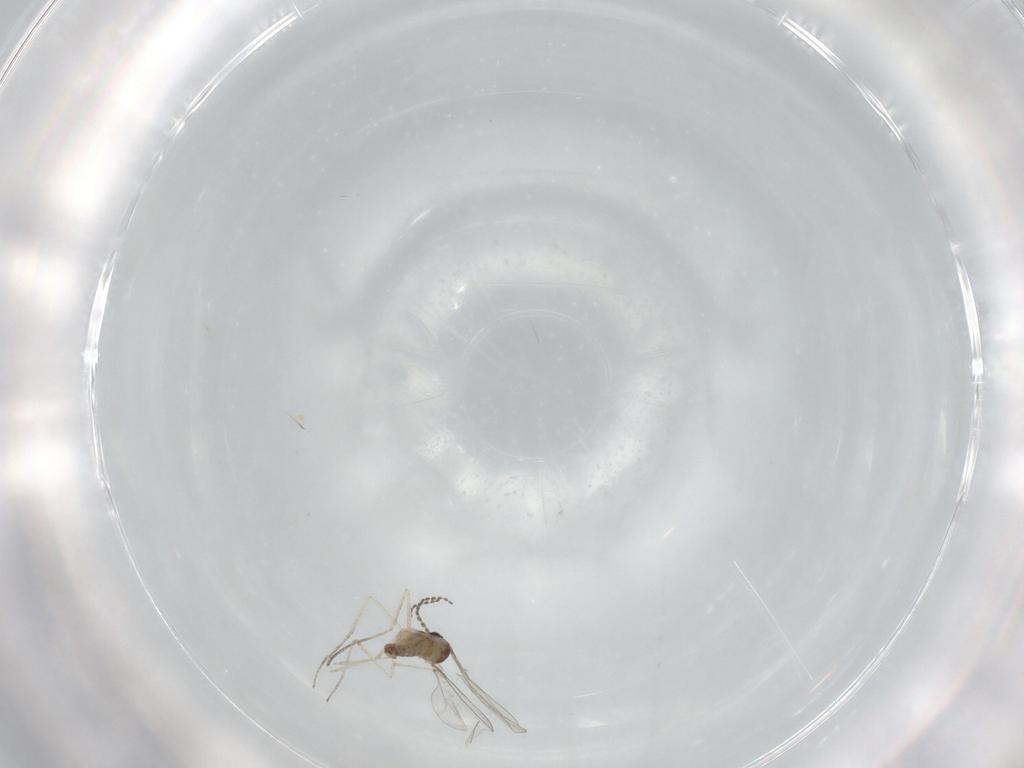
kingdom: Animalia
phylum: Arthropoda
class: Insecta
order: Diptera
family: Cecidomyiidae
